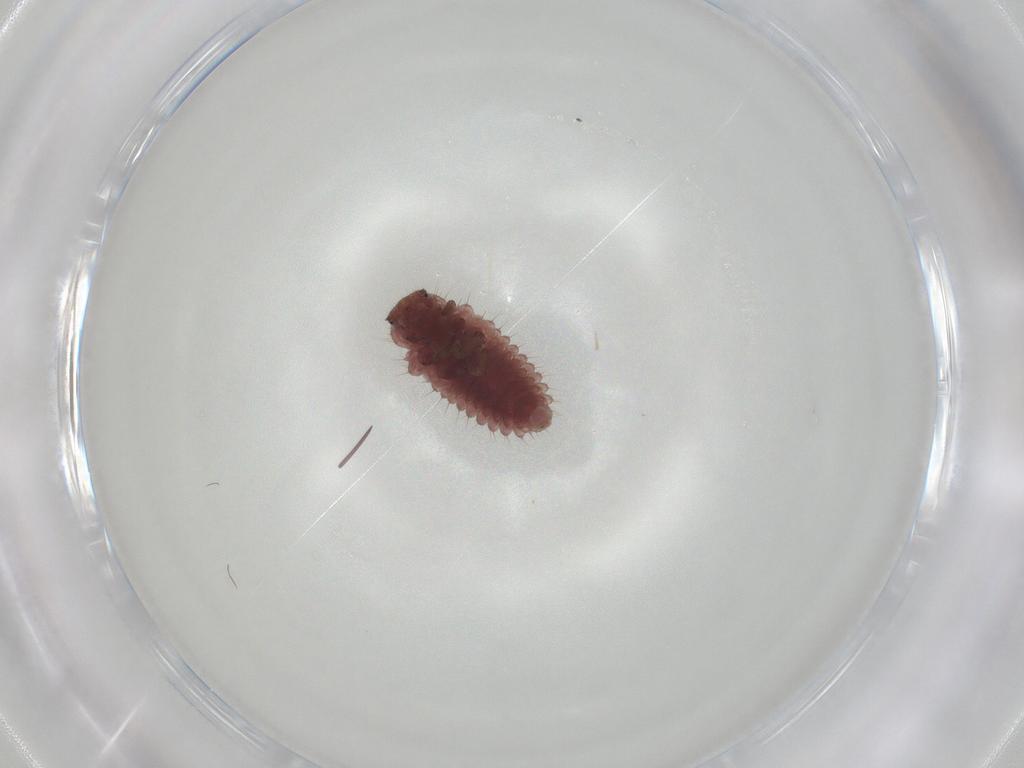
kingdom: Animalia
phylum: Arthropoda
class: Insecta
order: Coleoptera
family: Coccinellidae
